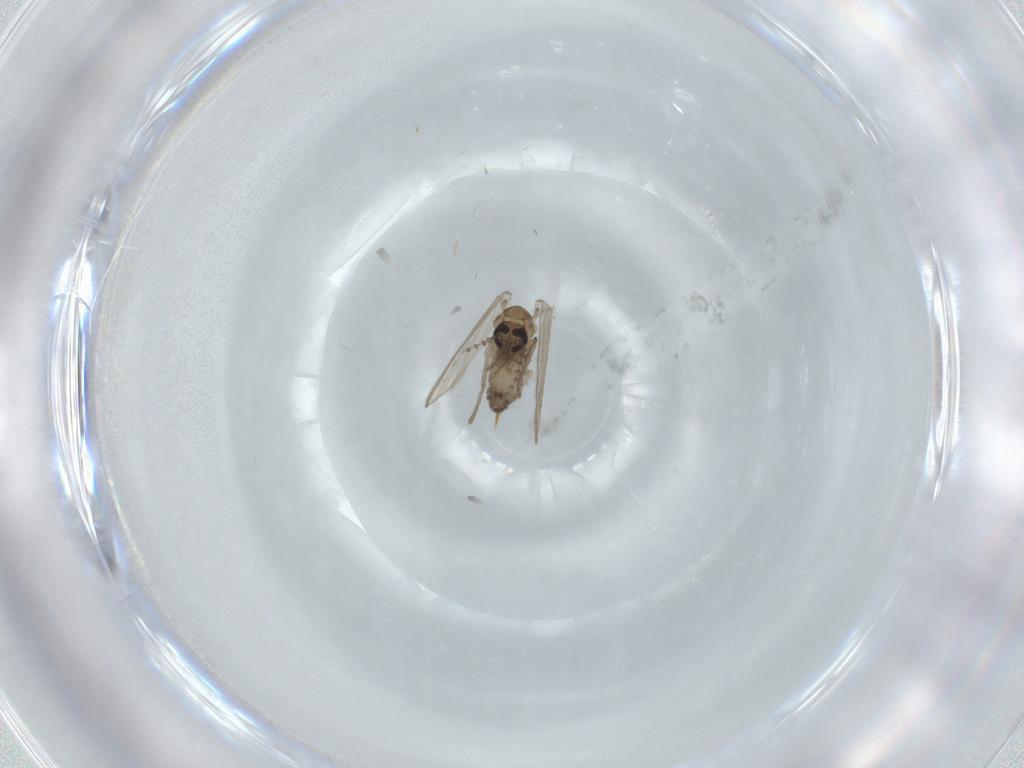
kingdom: Animalia
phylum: Arthropoda
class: Insecta
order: Diptera
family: Psychodidae
